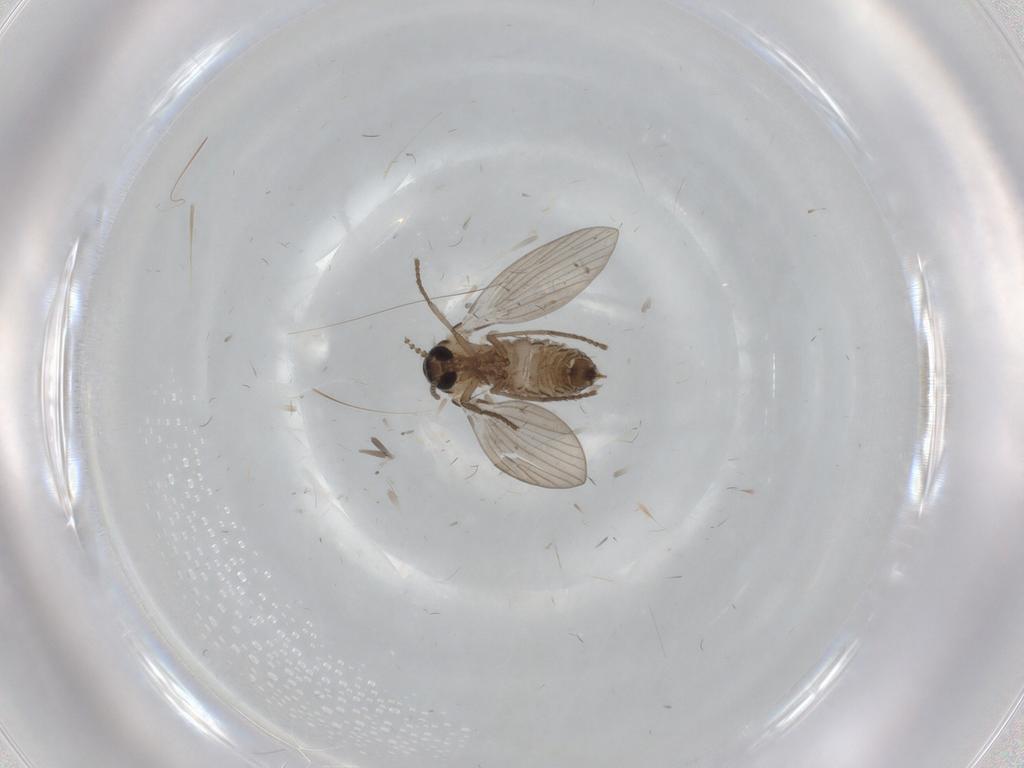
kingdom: Animalia
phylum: Arthropoda
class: Insecta
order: Diptera
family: Psychodidae
